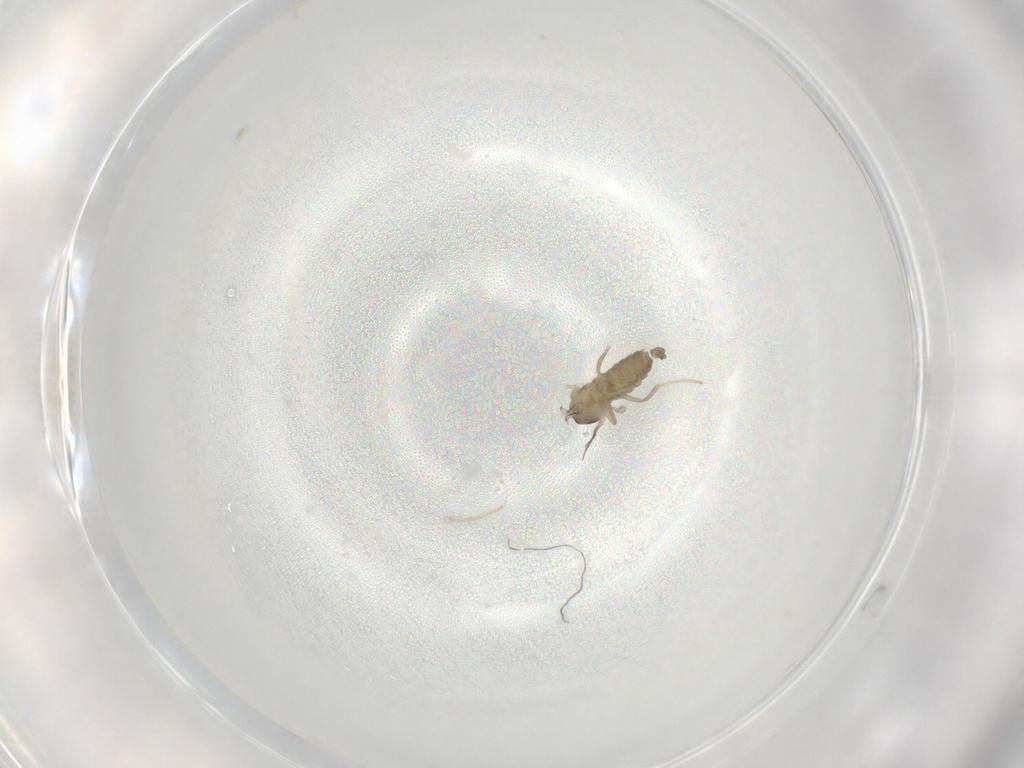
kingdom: Animalia
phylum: Arthropoda
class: Insecta
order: Diptera
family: Cecidomyiidae
